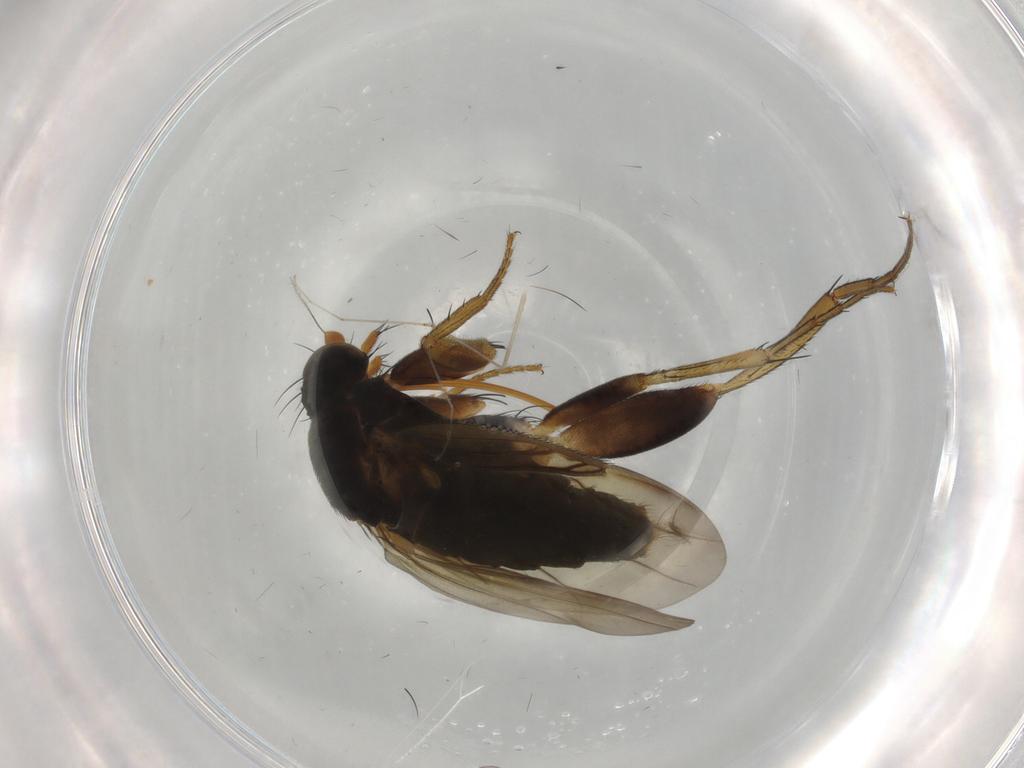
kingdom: Animalia
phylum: Arthropoda
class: Insecta
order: Diptera
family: Phoridae
